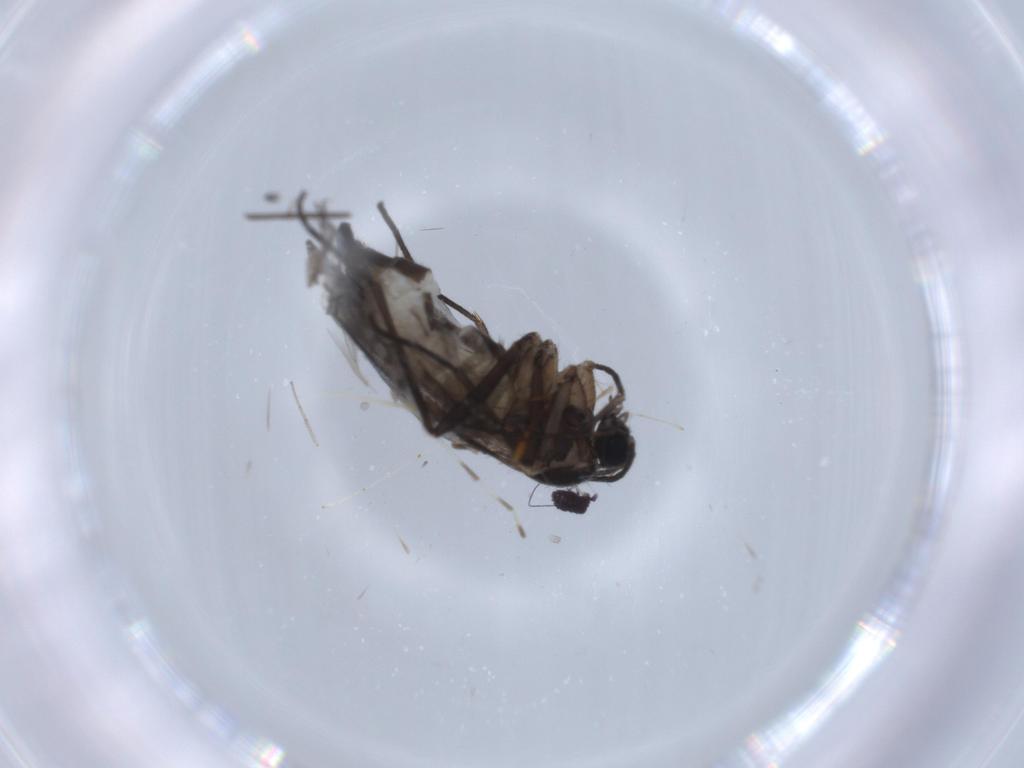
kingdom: Animalia
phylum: Arthropoda
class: Insecta
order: Diptera
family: Sciaridae
